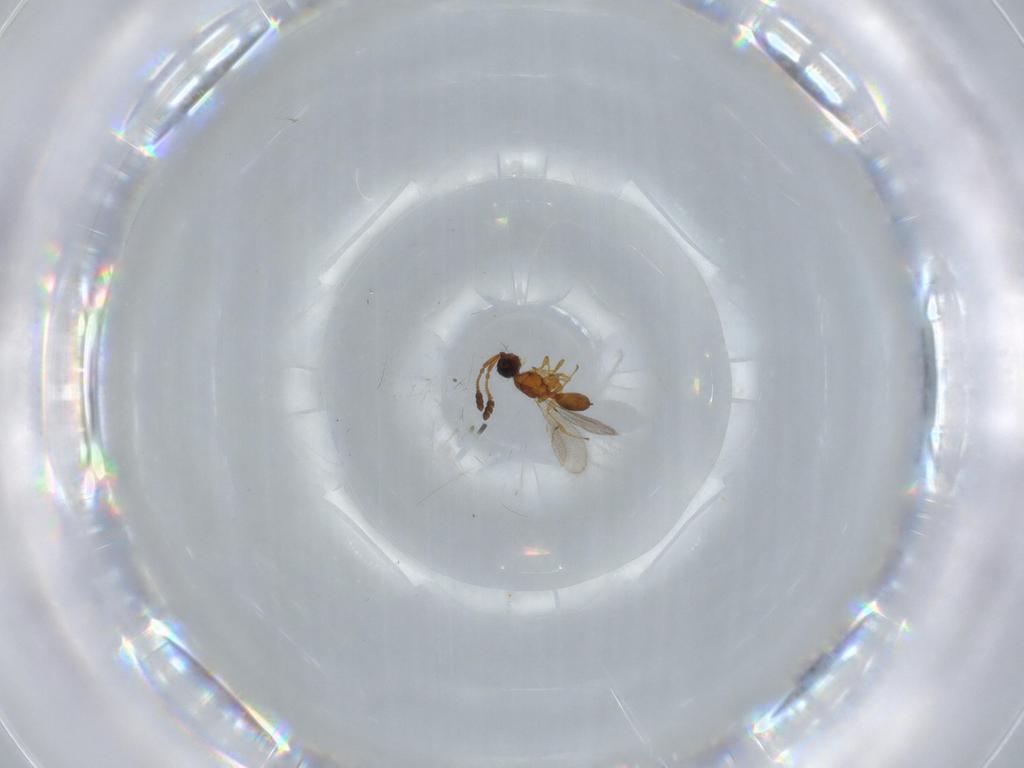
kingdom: Animalia
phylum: Arthropoda
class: Insecta
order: Hymenoptera
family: Diapriidae
